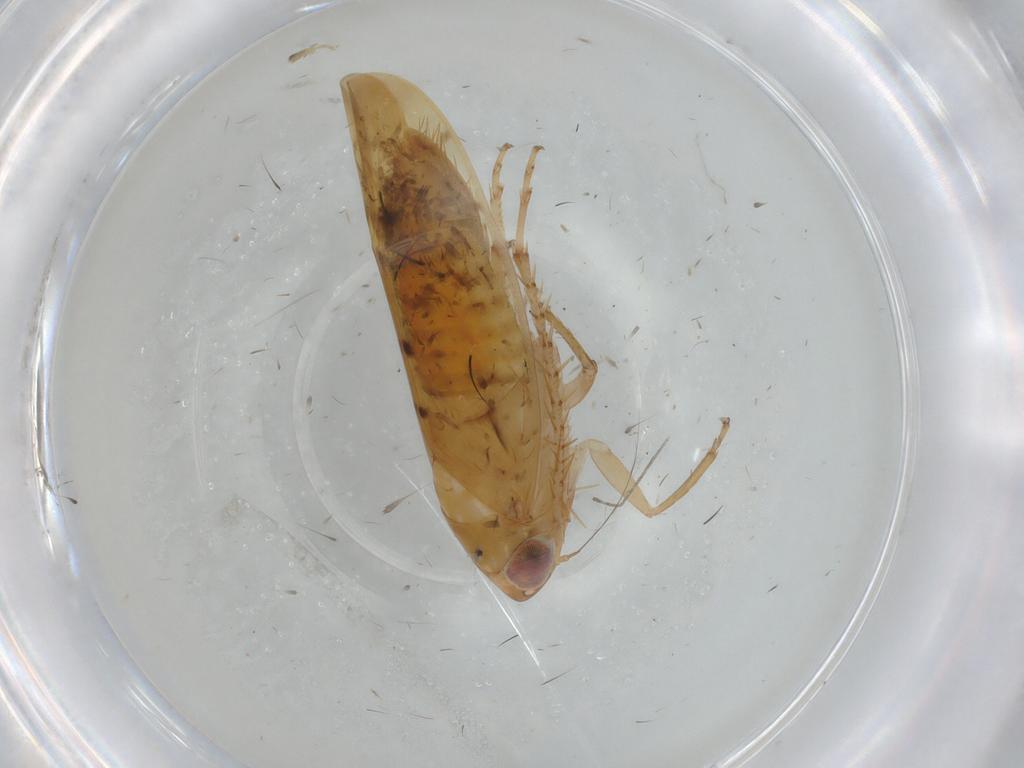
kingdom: Animalia
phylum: Arthropoda
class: Insecta
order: Hemiptera
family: Cicadellidae
